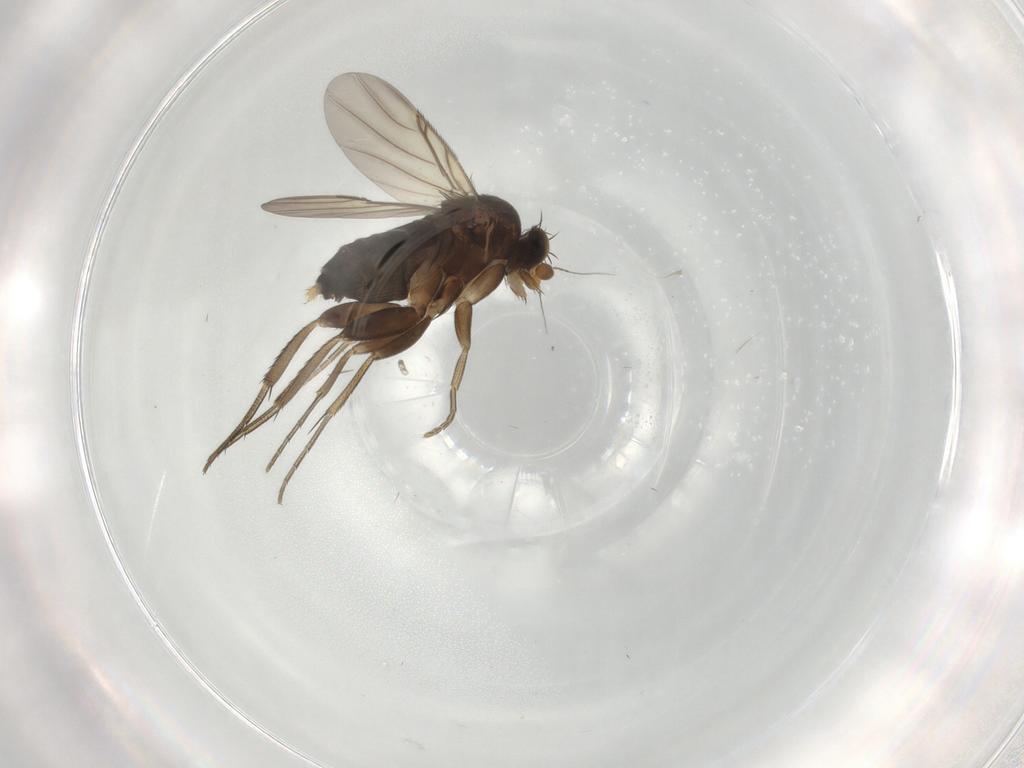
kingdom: Animalia
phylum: Arthropoda
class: Insecta
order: Diptera
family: Phoridae
